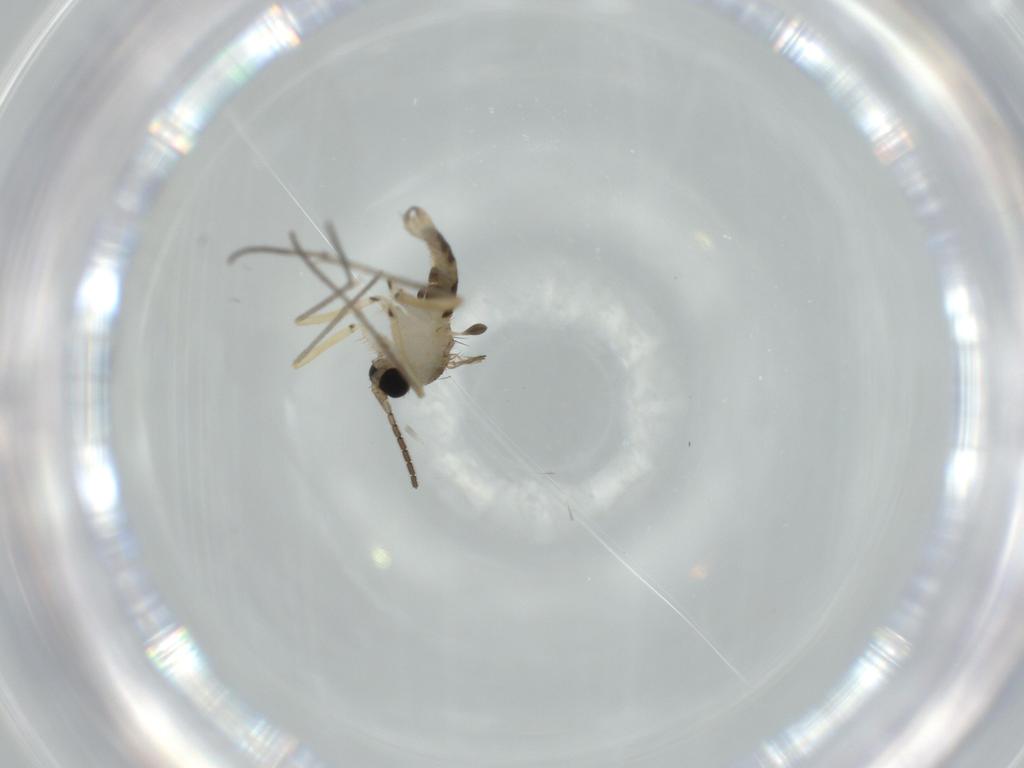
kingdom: Animalia
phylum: Arthropoda
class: Insecta
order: Diptera
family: Sciaridae
